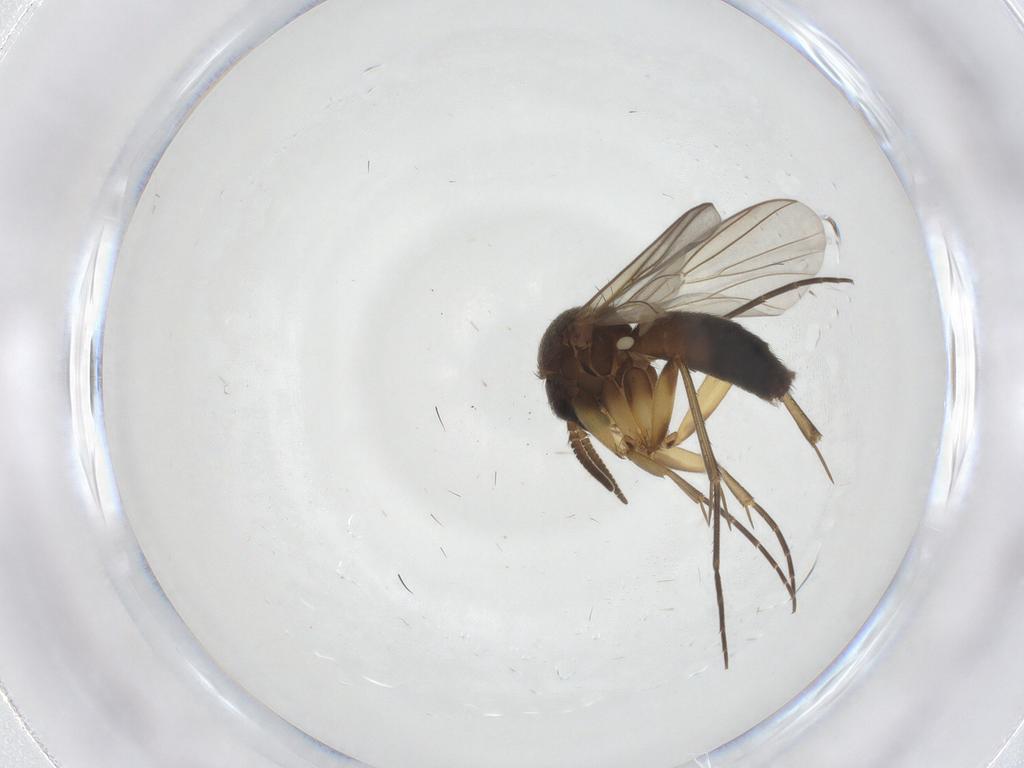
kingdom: Animalia
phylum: Arthropoda
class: Insecta
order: Diptera
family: Mycetophilidae
